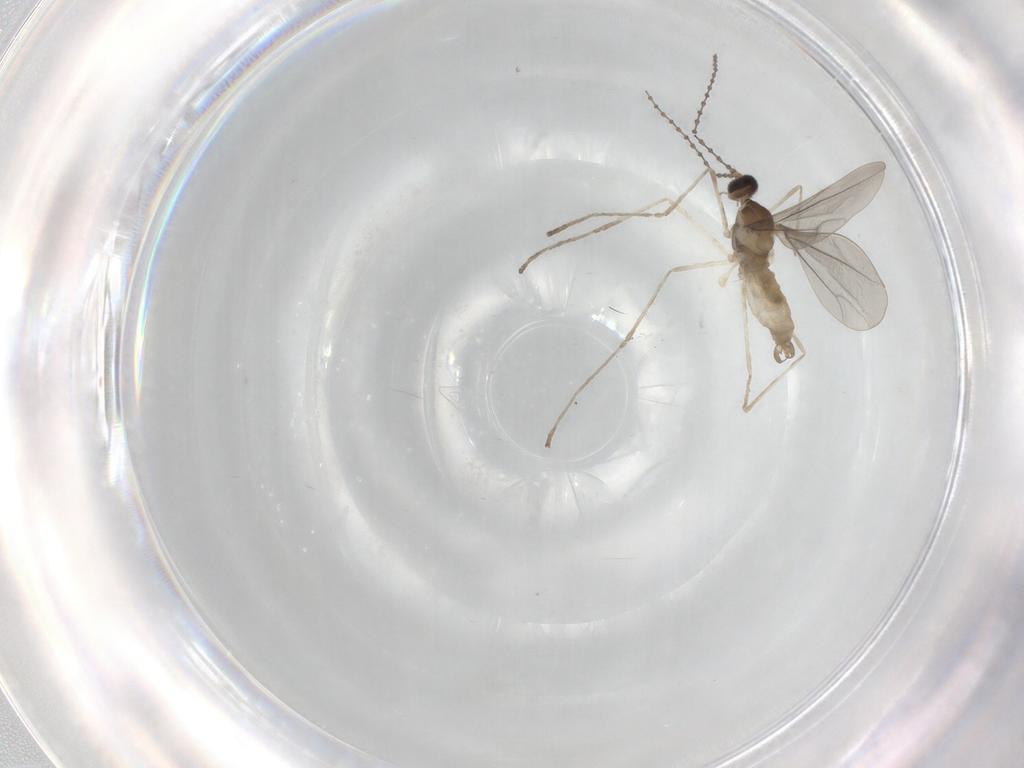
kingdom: Animalia
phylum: Arthropoda
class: Insecta
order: Diptera
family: Cecidomyiidae
